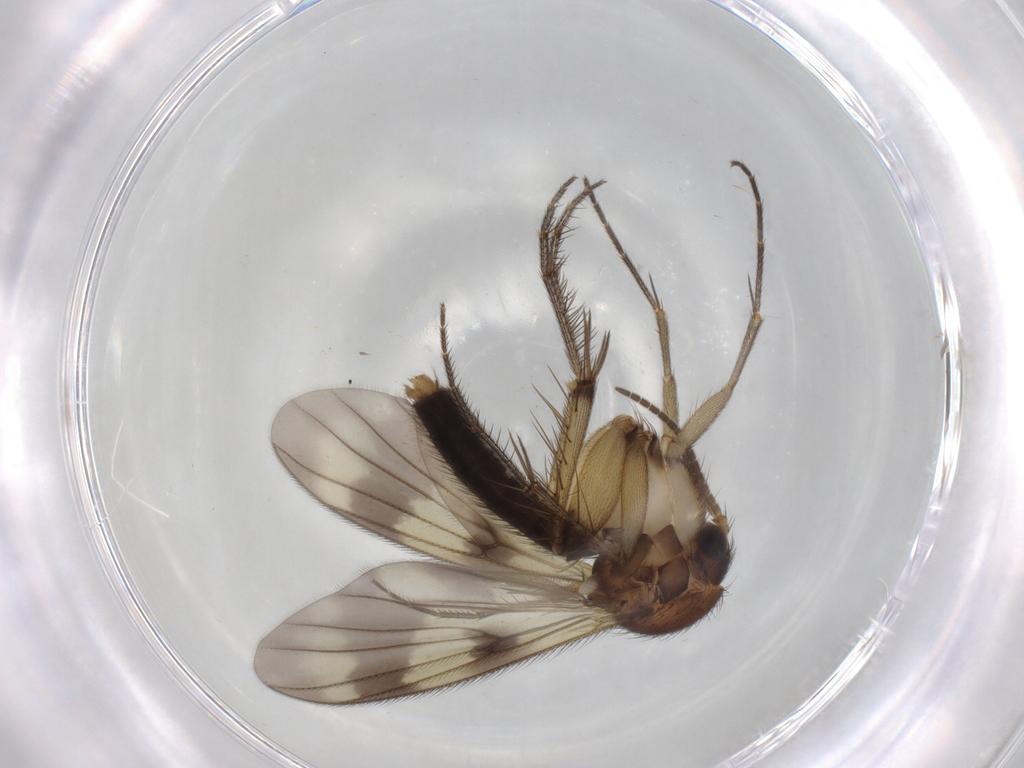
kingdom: Animalia
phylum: Arthropoda
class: Insecta
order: Diptera
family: Mycetophilidae
